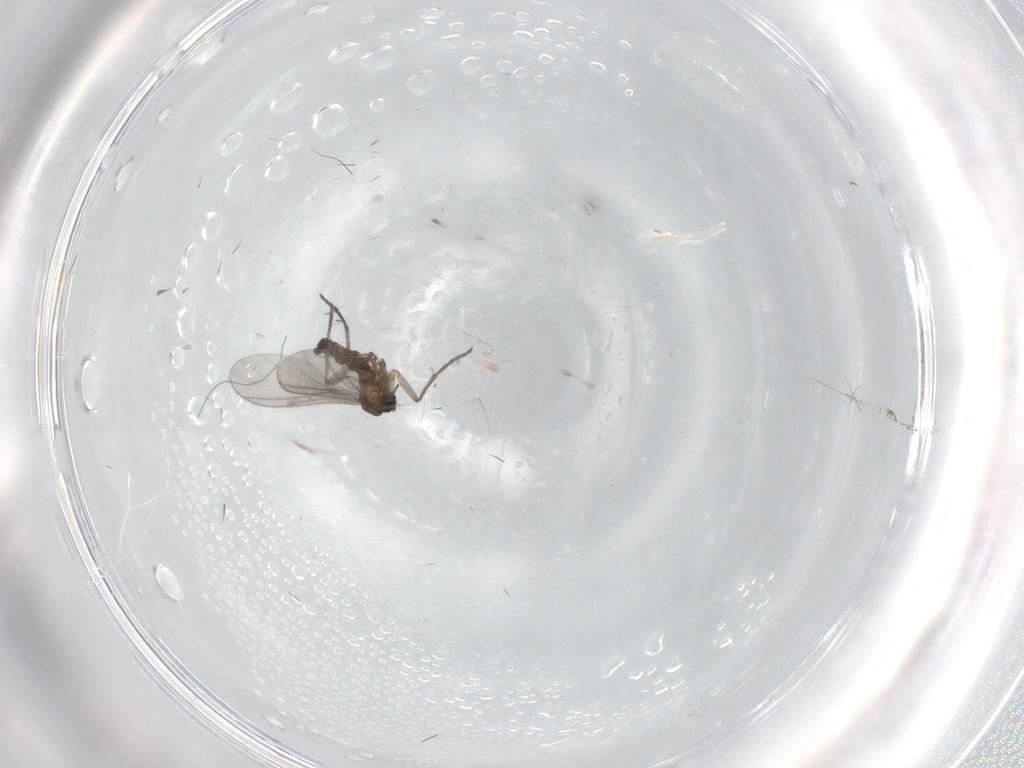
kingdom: Animalia
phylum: Arthropoda
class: Insecta
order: Diptera
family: Sciaridae
